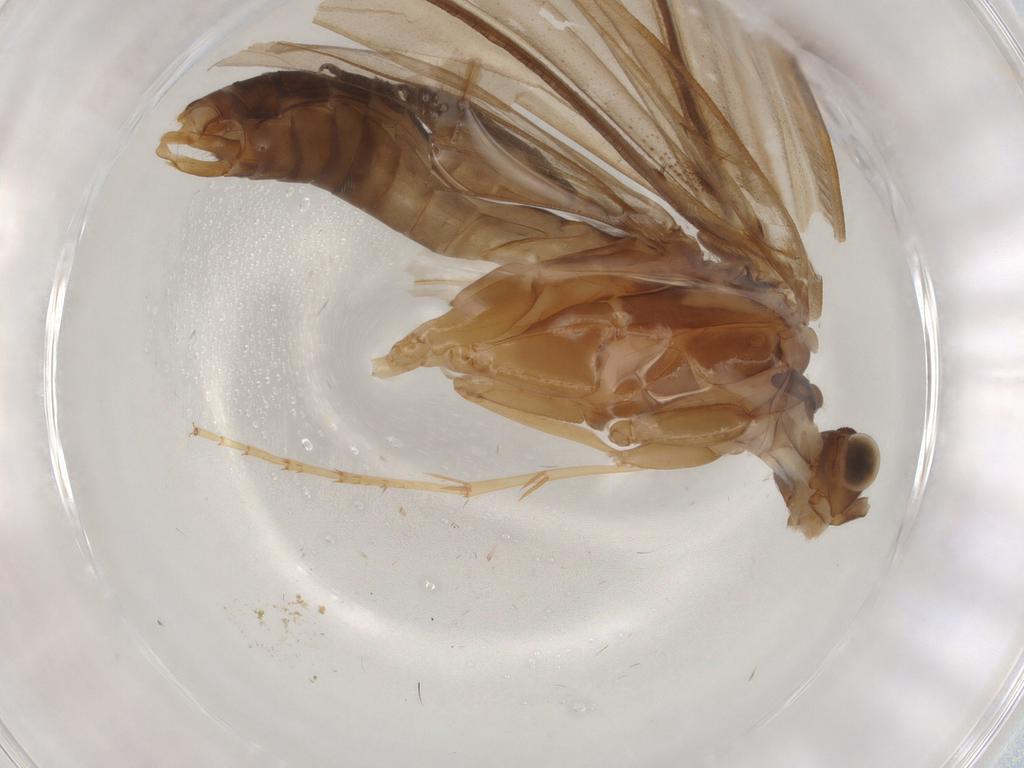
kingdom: Animalia
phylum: Arthropoda
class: Insecta
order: Trichoptera
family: Lepidostomatidae
